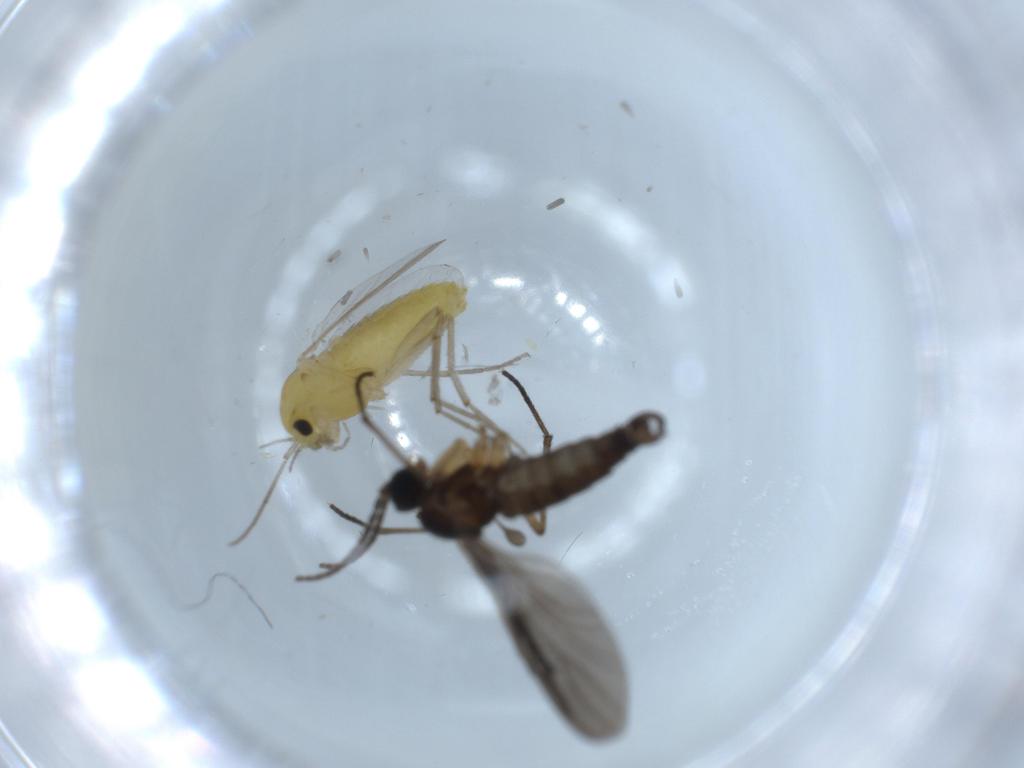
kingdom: Animalia
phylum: Arthropoda
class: Insecta
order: Diptera
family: Chironomidae
